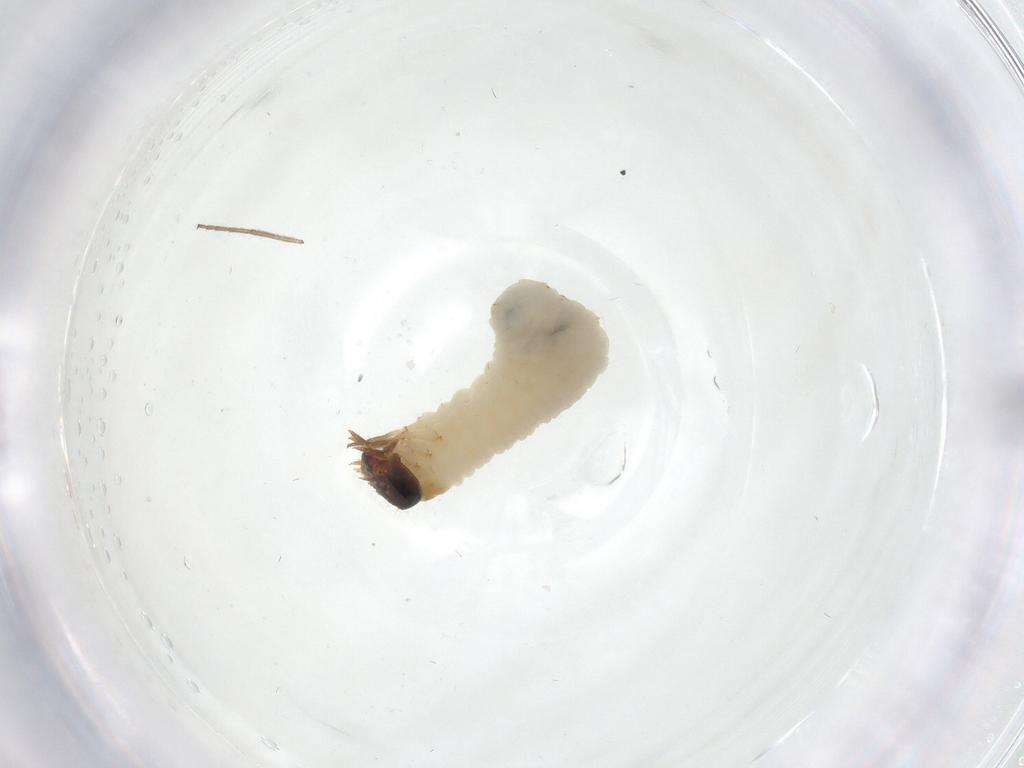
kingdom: Animalia
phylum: Arthropoda
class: Insecta
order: Diptera
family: Chironomidae
